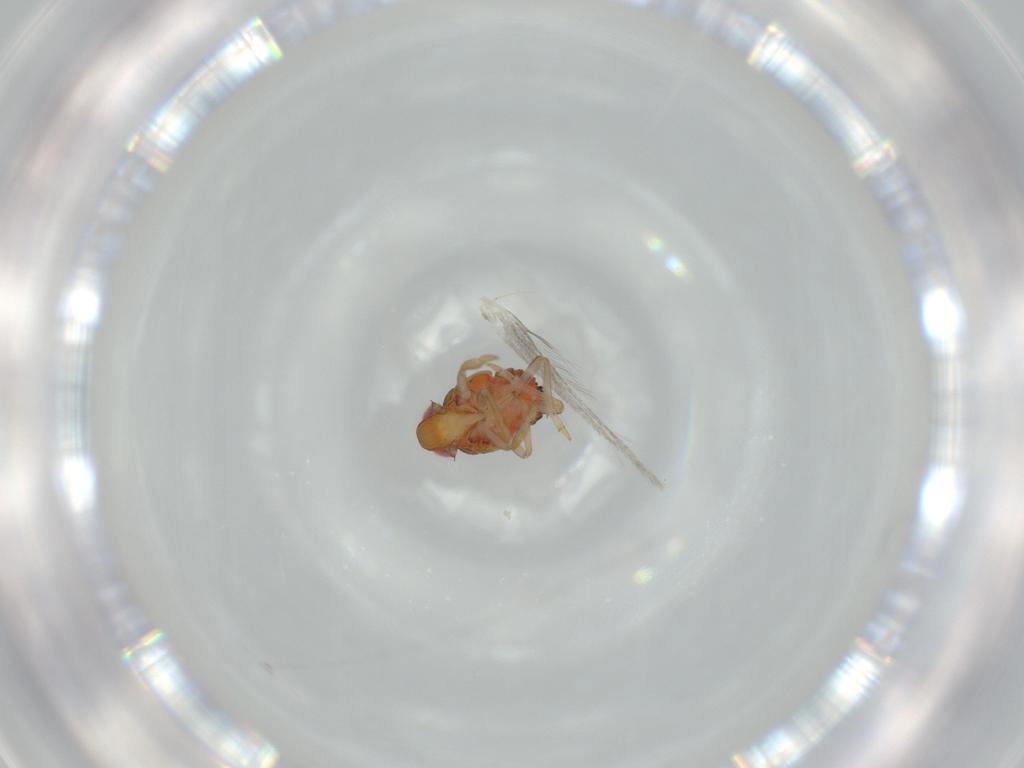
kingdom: Animalia
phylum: Arthropoda
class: Insecta
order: Hemiptera
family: Issidae
